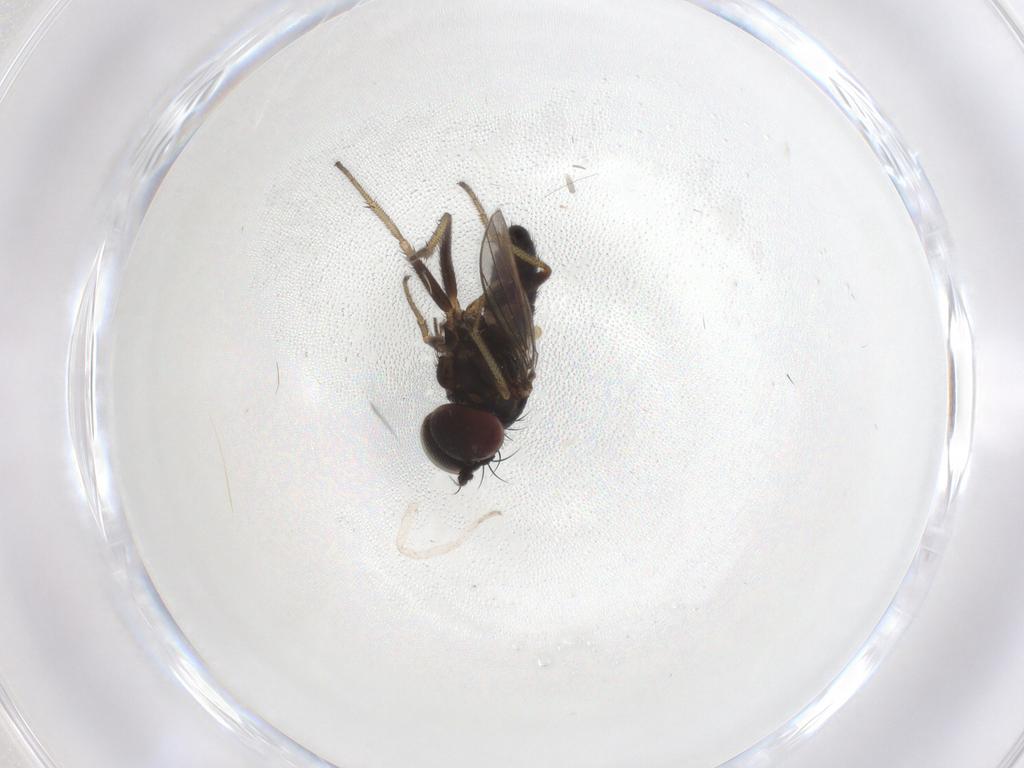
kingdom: Animalia
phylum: Arthropoda
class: Insecta
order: Diptera
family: Dolichopodidae
